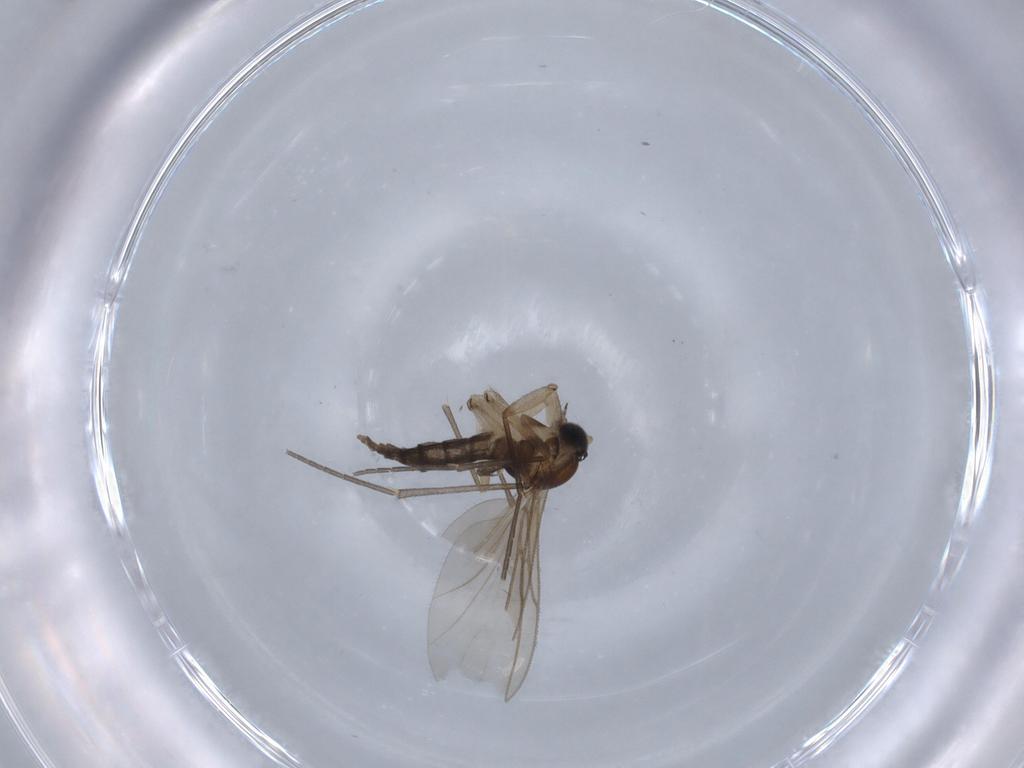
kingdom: Animalia
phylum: Arthropoda
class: Insecta
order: Diptera
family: Sciaridae
